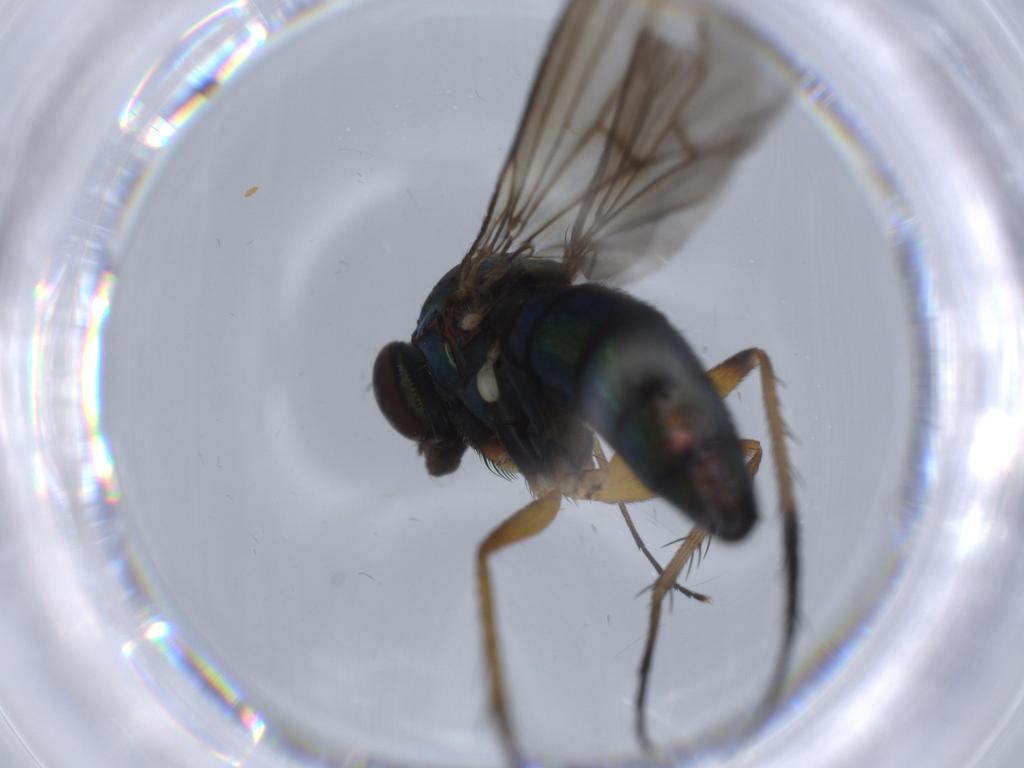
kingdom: Animalia
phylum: Arthropoda
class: Insecta
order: Diptera
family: Dolichopodidae
